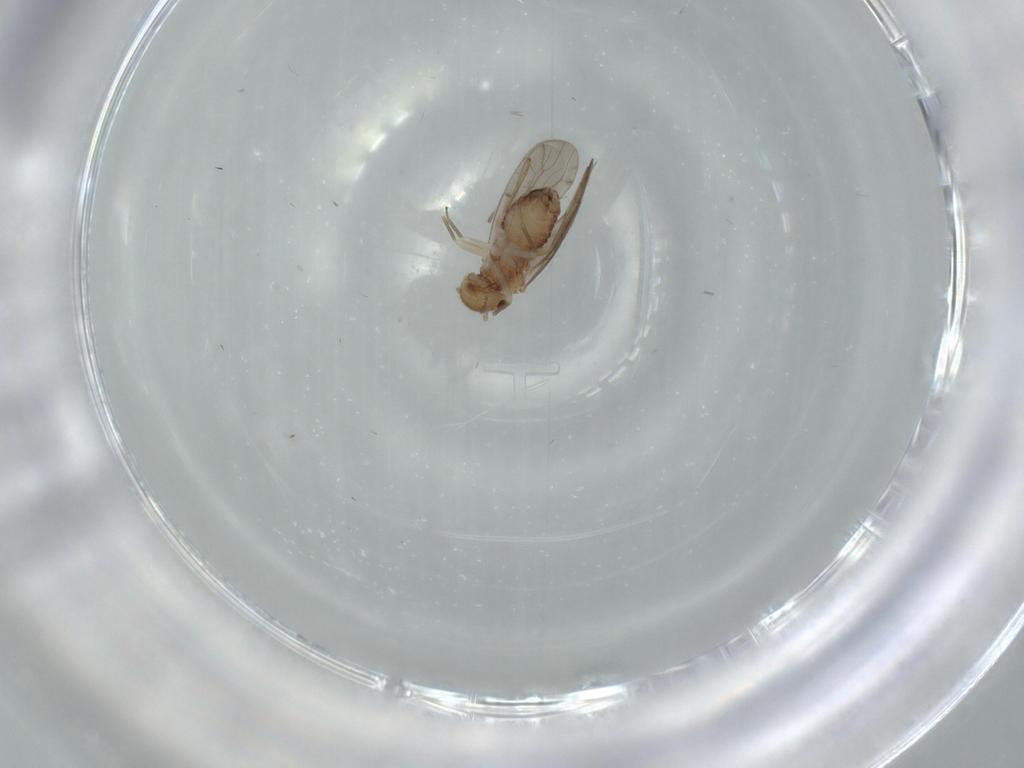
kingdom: Animalia
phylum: Arthropoda
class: Insecta
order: Psocodea
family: Ectopsocidae
